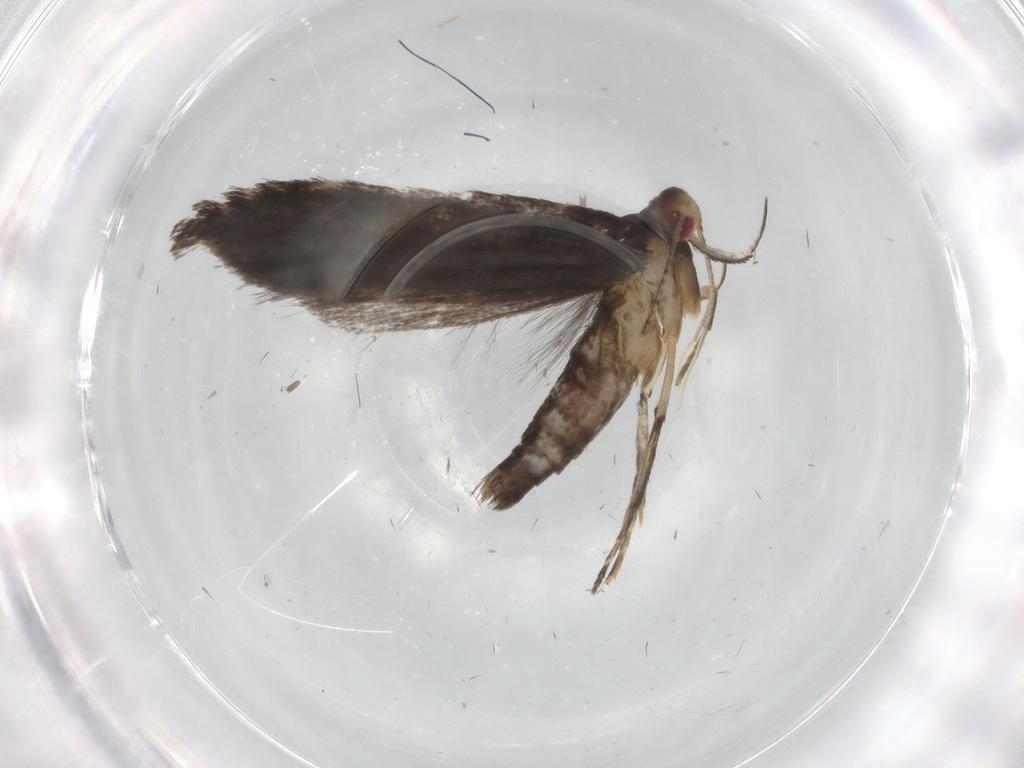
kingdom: Animalia
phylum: Arthropoda
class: Insecta
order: Lepidoptera
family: Gelechiidae
